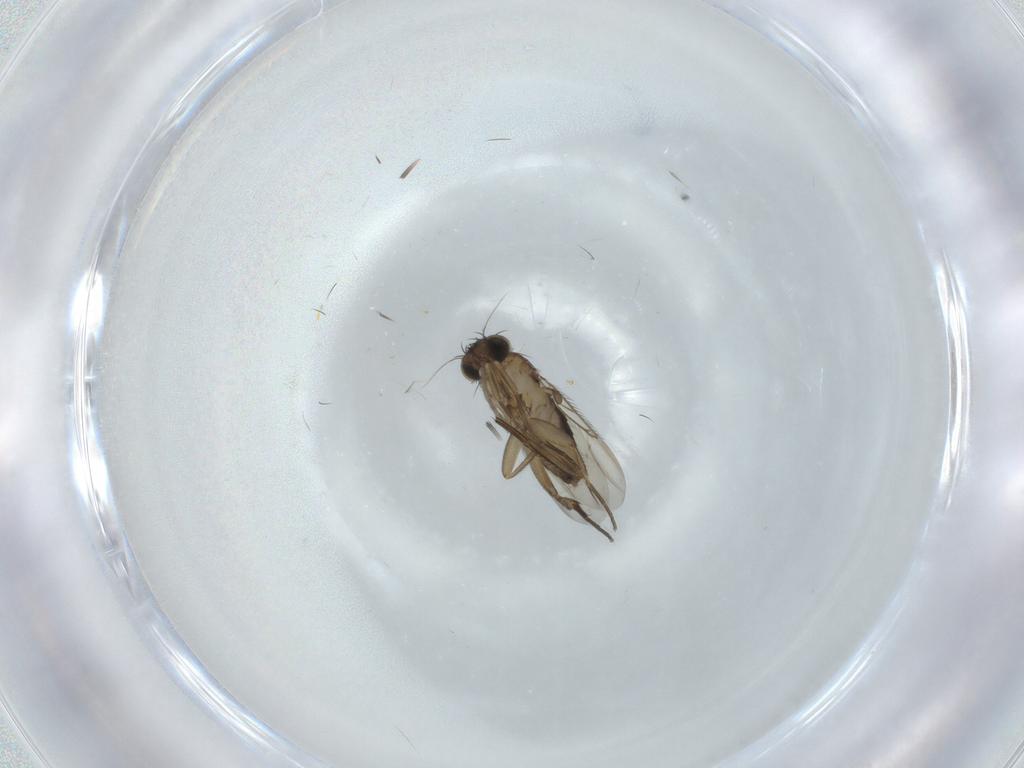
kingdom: Animalia
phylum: Arthropoda
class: Insecta
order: Diptera
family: Phoridae
